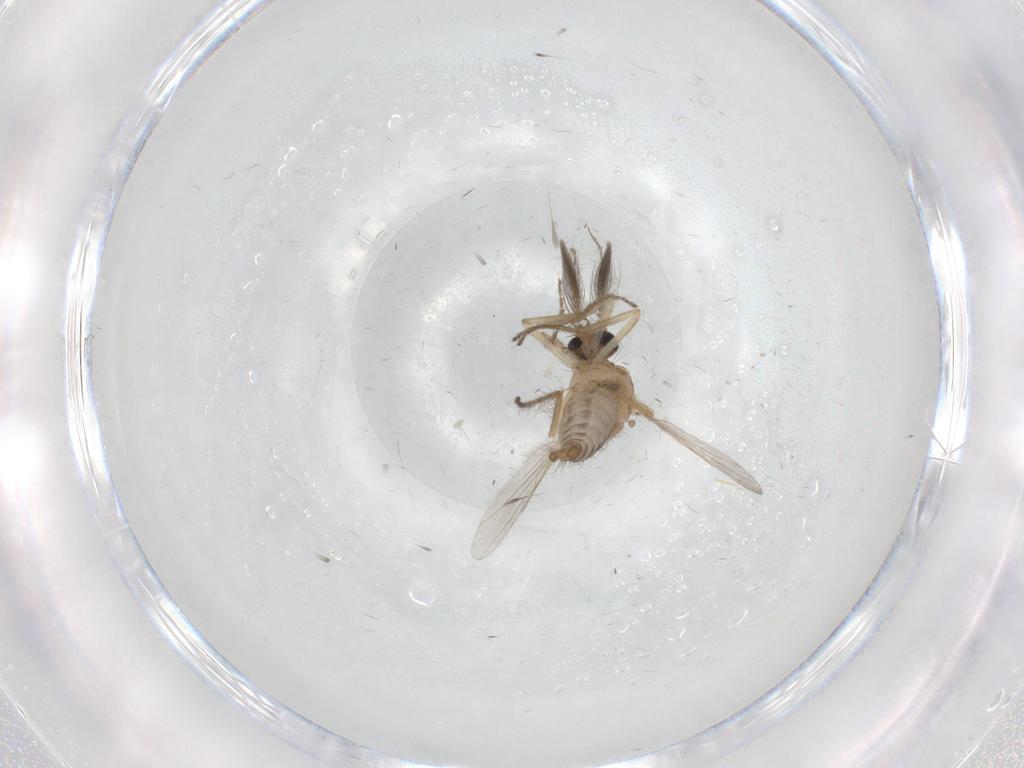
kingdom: Animalia
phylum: Arthropoda
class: Insecta
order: Diptera
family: Ceratopogonidae
